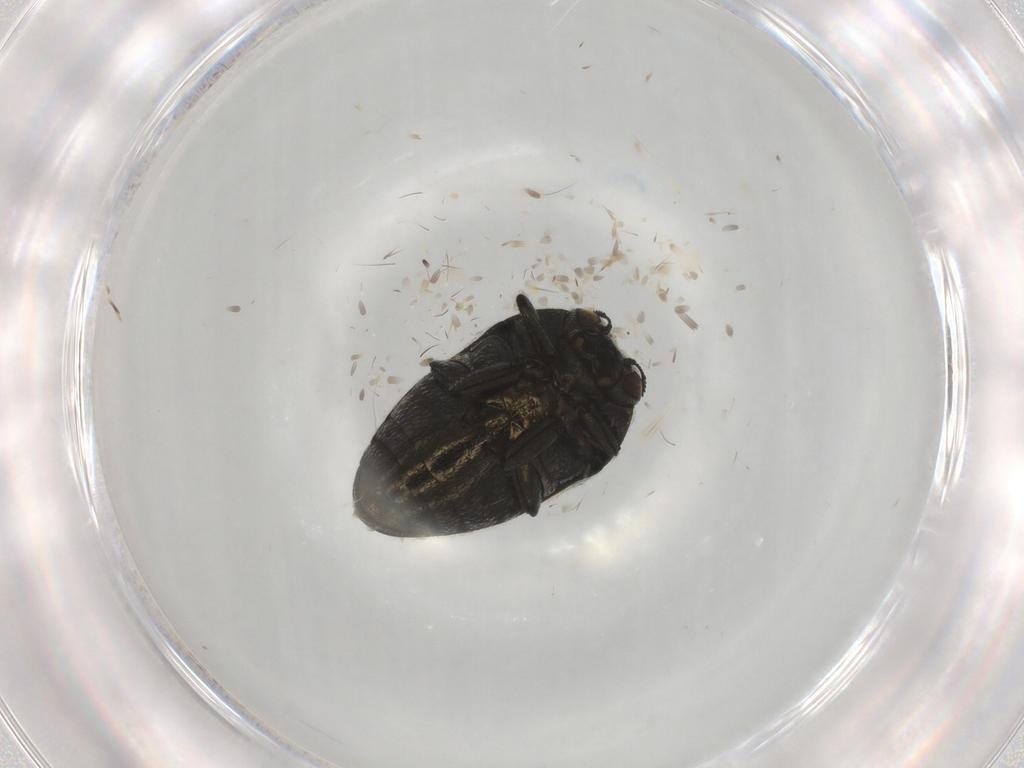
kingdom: Animalia
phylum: Arthropoda
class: Insecta
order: Coleoptera
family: Buprestidae
